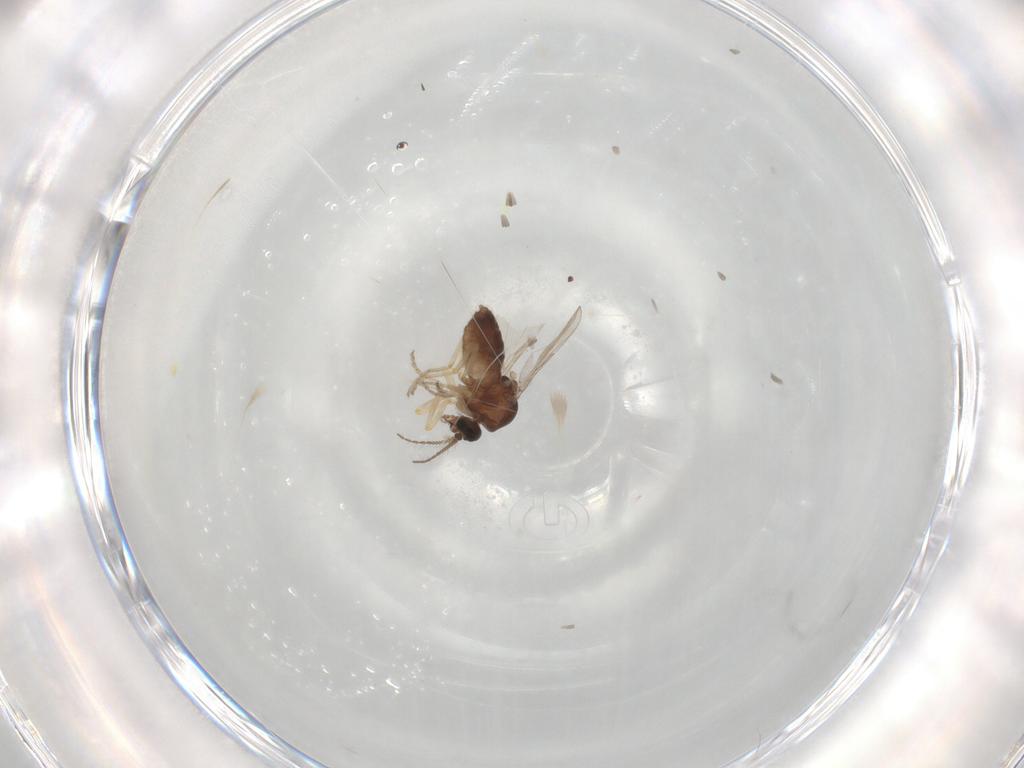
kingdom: Animalia
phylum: Arthropoda
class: Insecta
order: Diptera
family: Ceratopogonidae
